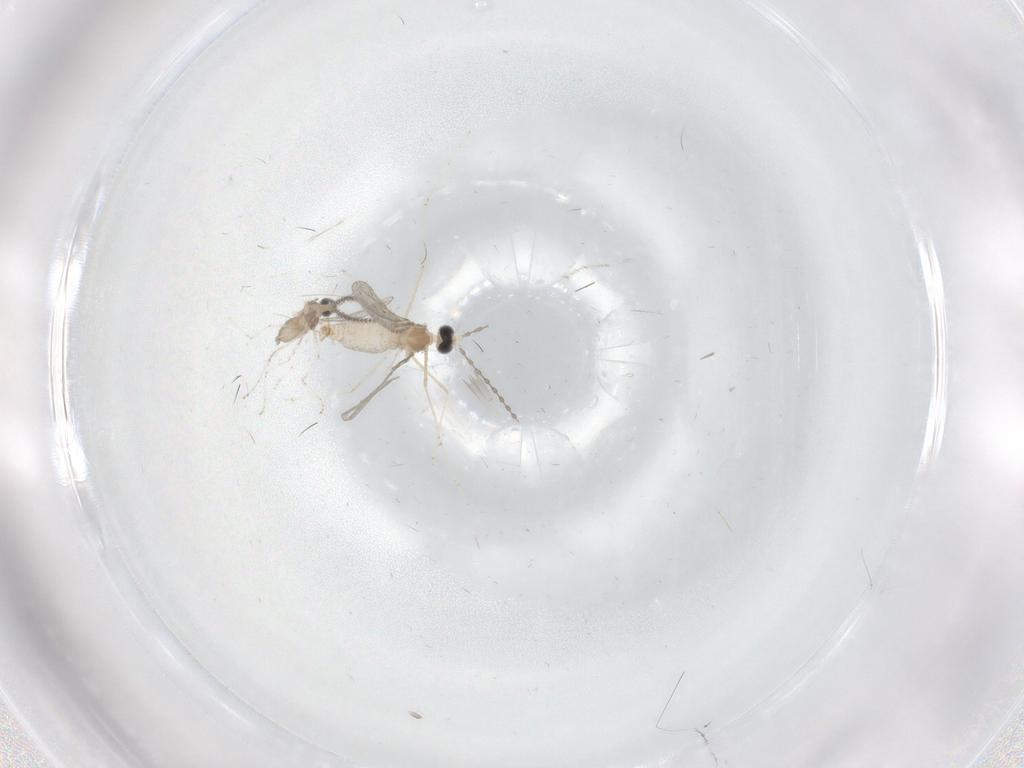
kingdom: Animalia
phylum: Arthropoda
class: Insecta
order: Diptera
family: Cecidomyiidae
